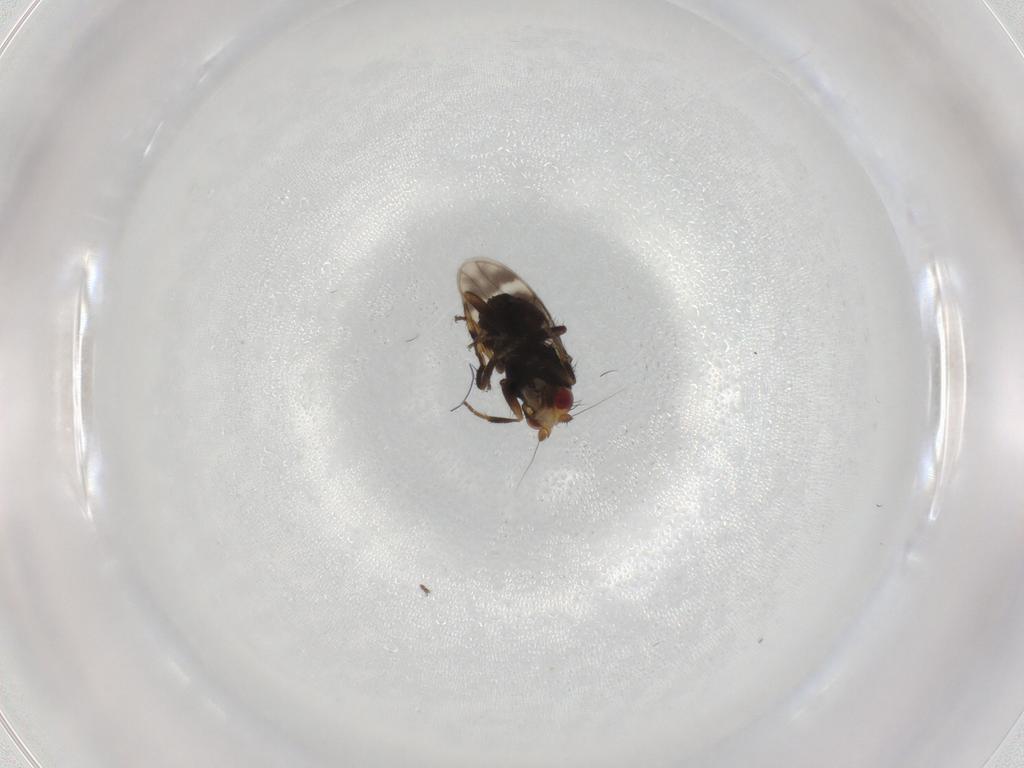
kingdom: Animalia
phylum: Arthropoda
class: Insecta
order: Diptera
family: Sphaeroceridae
